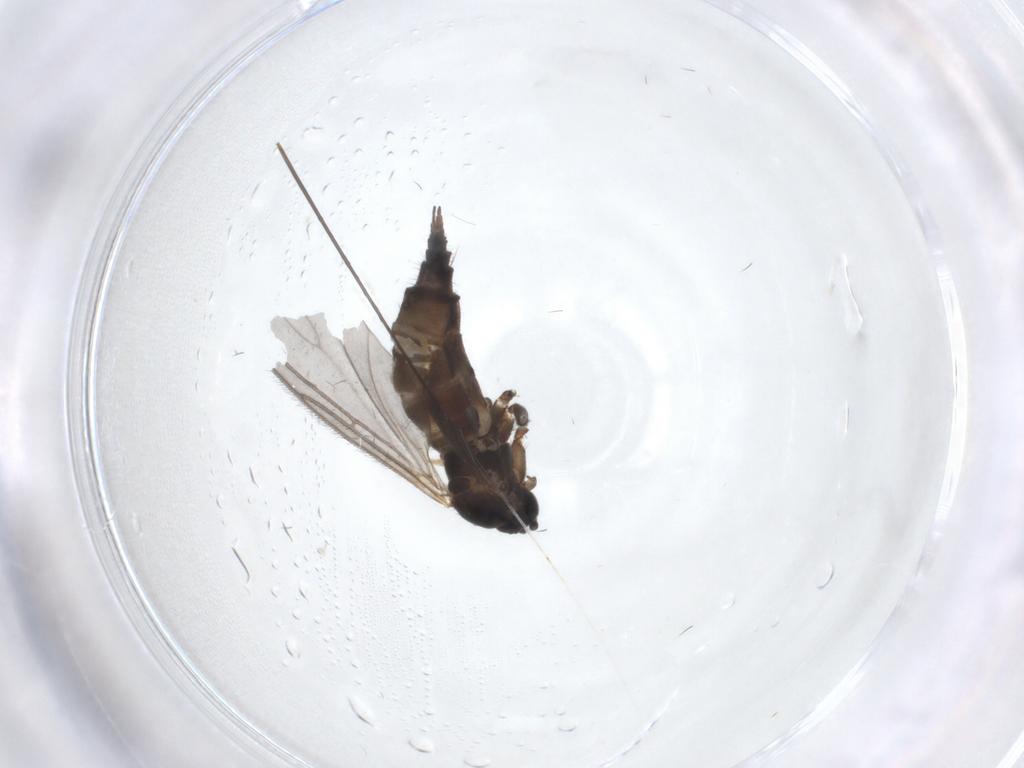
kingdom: Animalia
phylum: Arthropoda
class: Insecta
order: Diptera
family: Sciaridae
